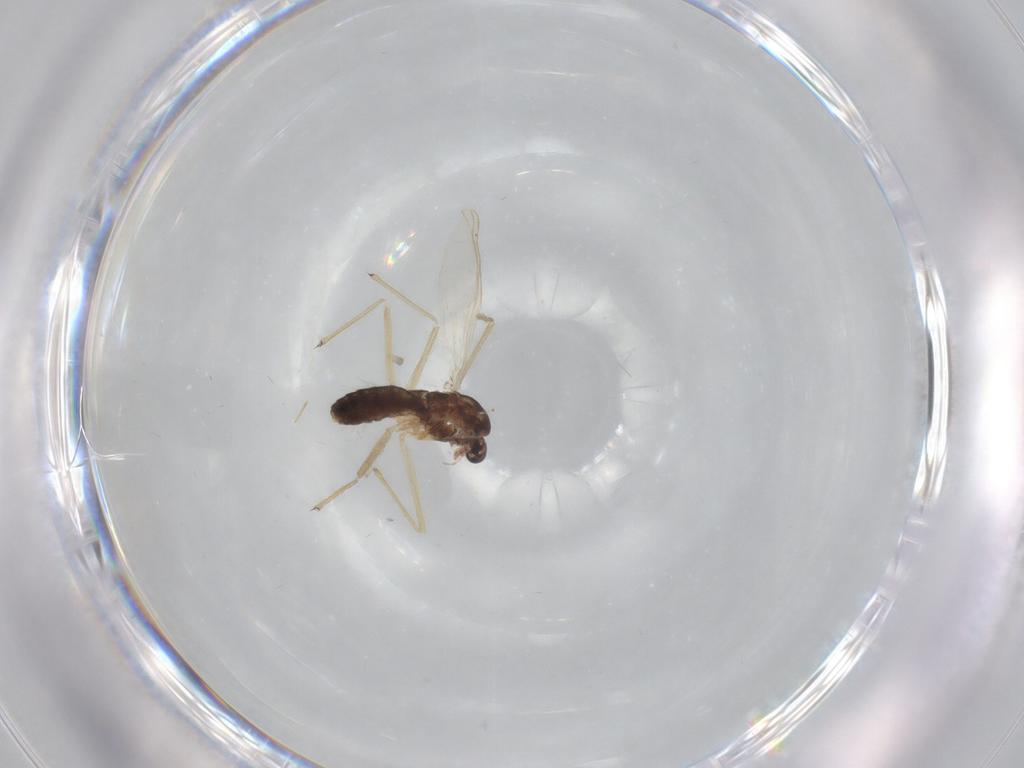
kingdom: Animalia
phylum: Arthropoda
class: Insecta
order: Diptera
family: Chironomidae
